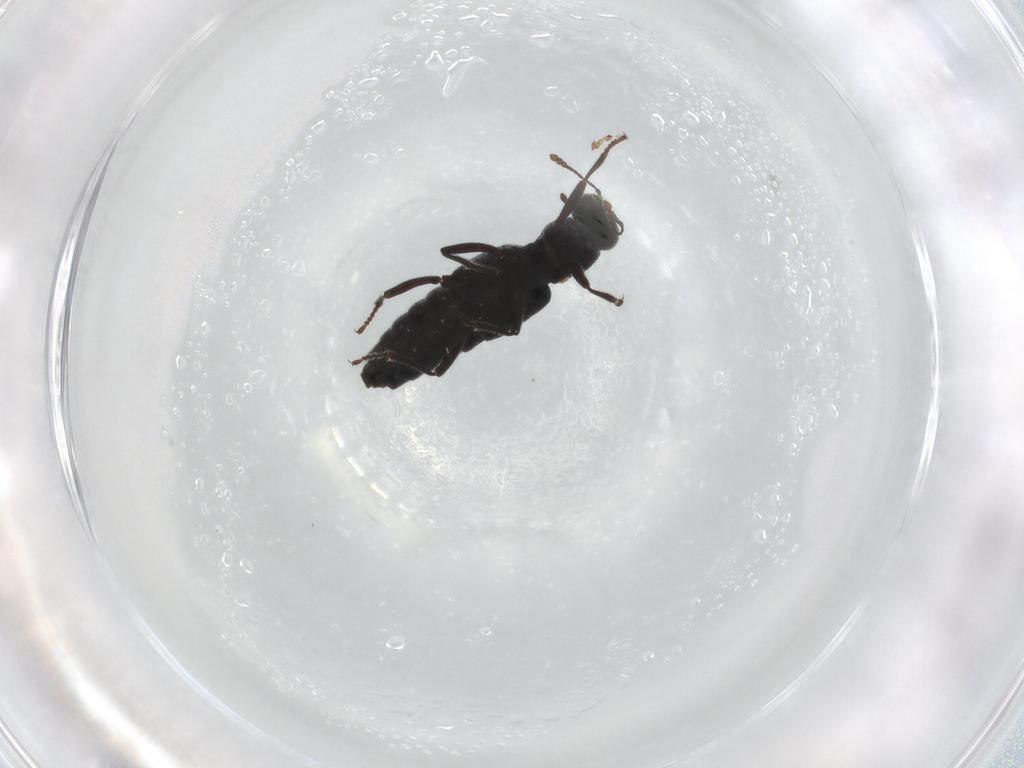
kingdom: Animalia
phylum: Arthropoda
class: Insecta
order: Coleoptera
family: Staphylinidae
